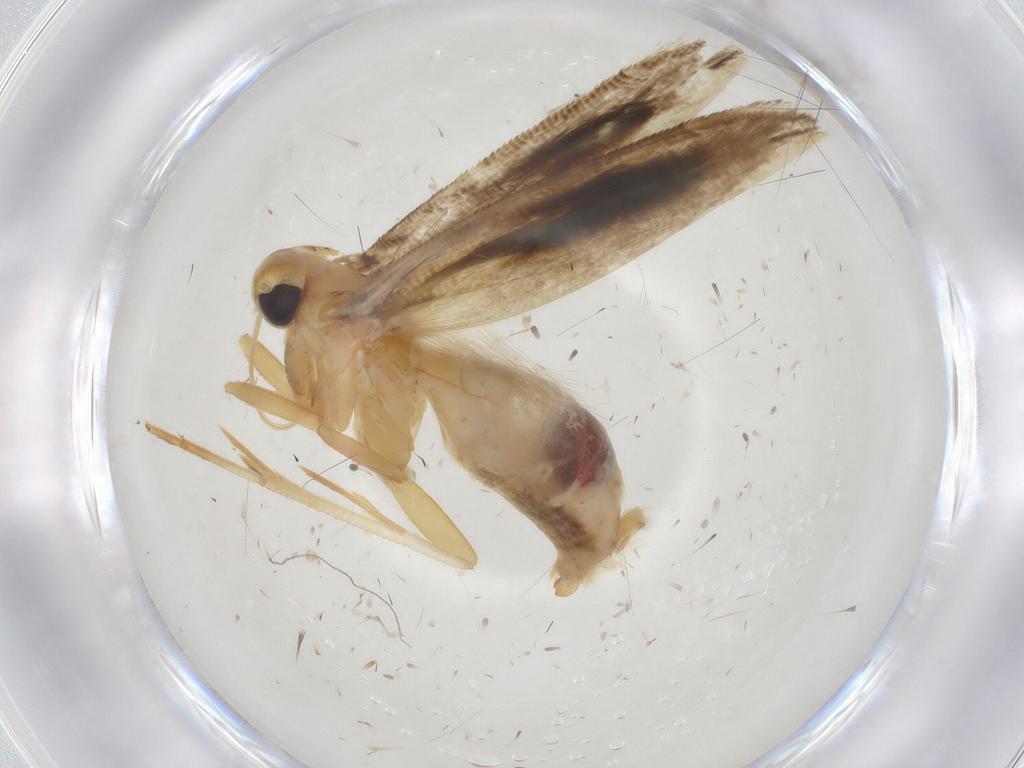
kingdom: Animalia
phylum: Arthropoda
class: Insecta
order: Lepidoptera
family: Momphidae
